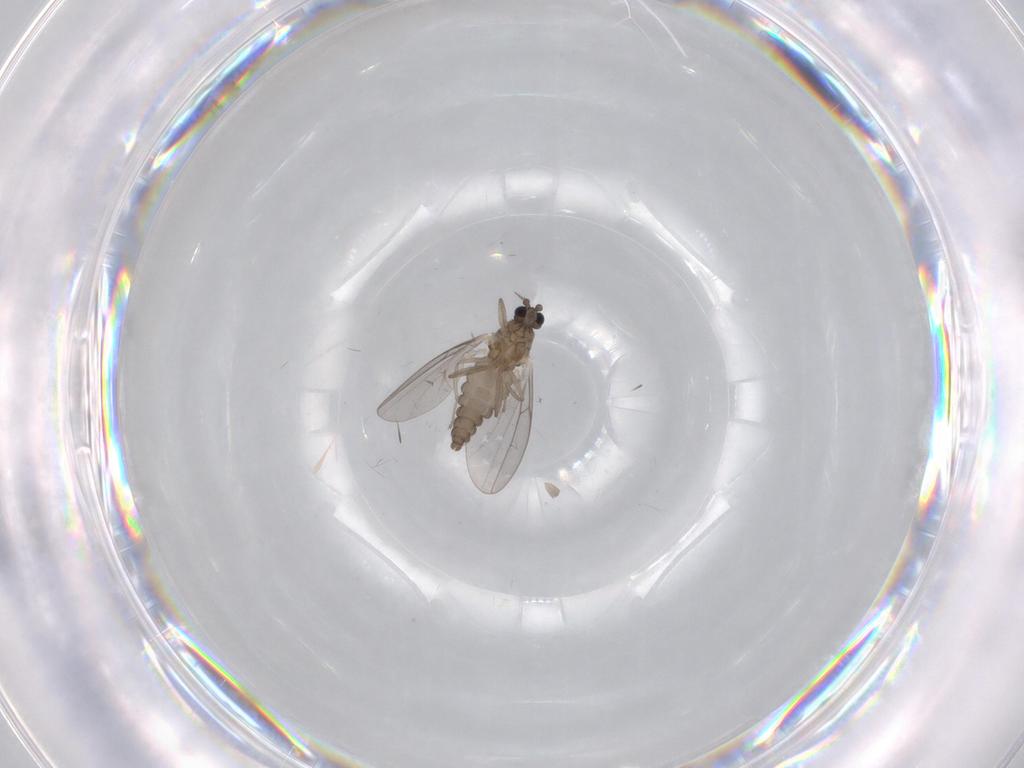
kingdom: Animalia
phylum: Arthropoda
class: Insecta
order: Diptera
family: Cecidomyiidae
